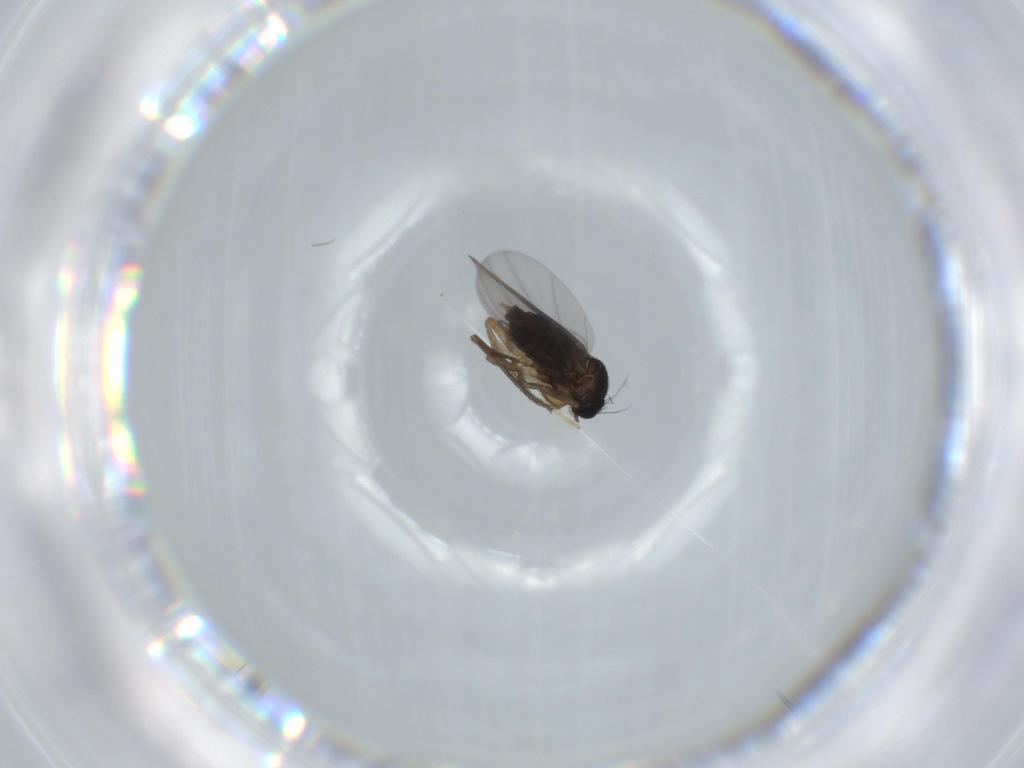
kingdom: Animalia
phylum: Arthropoda
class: Insecta
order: Diptera
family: Phoridae
